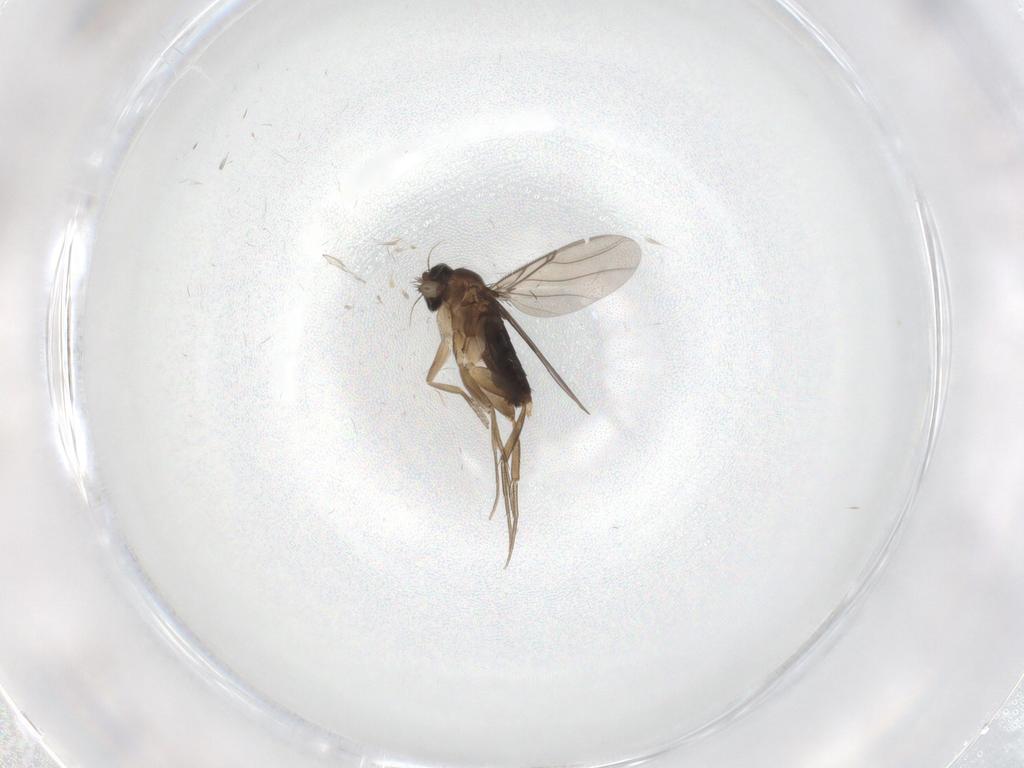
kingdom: Animalia
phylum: Arthropoda
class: Insecta
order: Diptera
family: Phoridae
